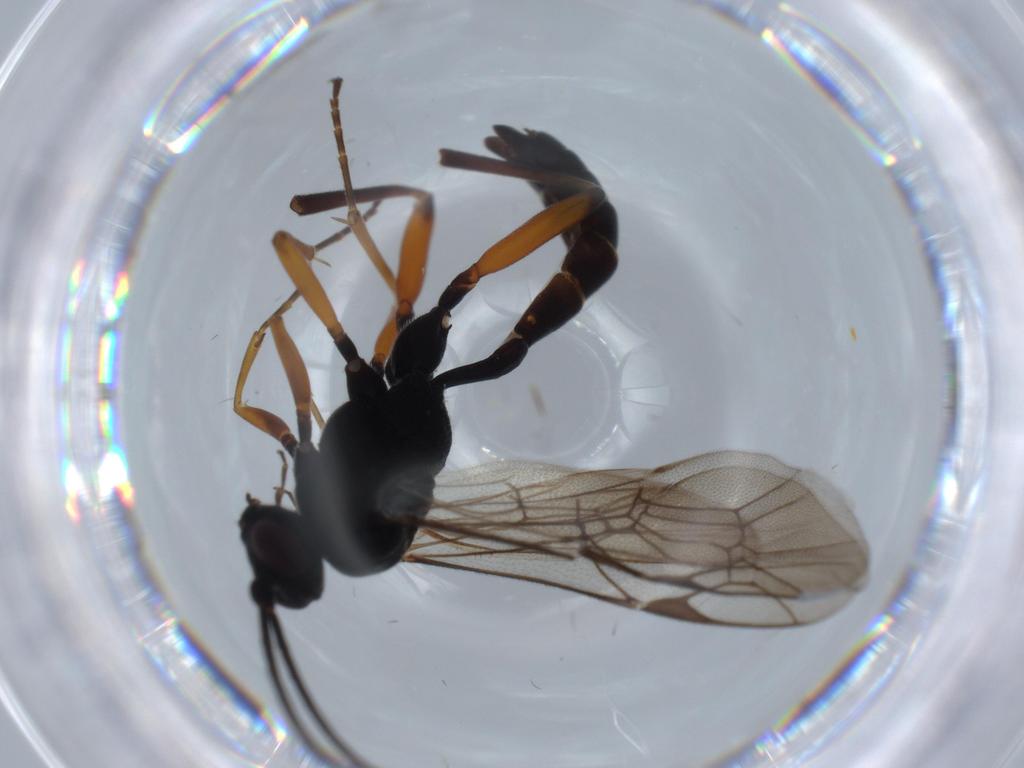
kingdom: Animalia
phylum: Arthropoda
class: Insecta
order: Hymenoptera
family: Ichneumonidae
